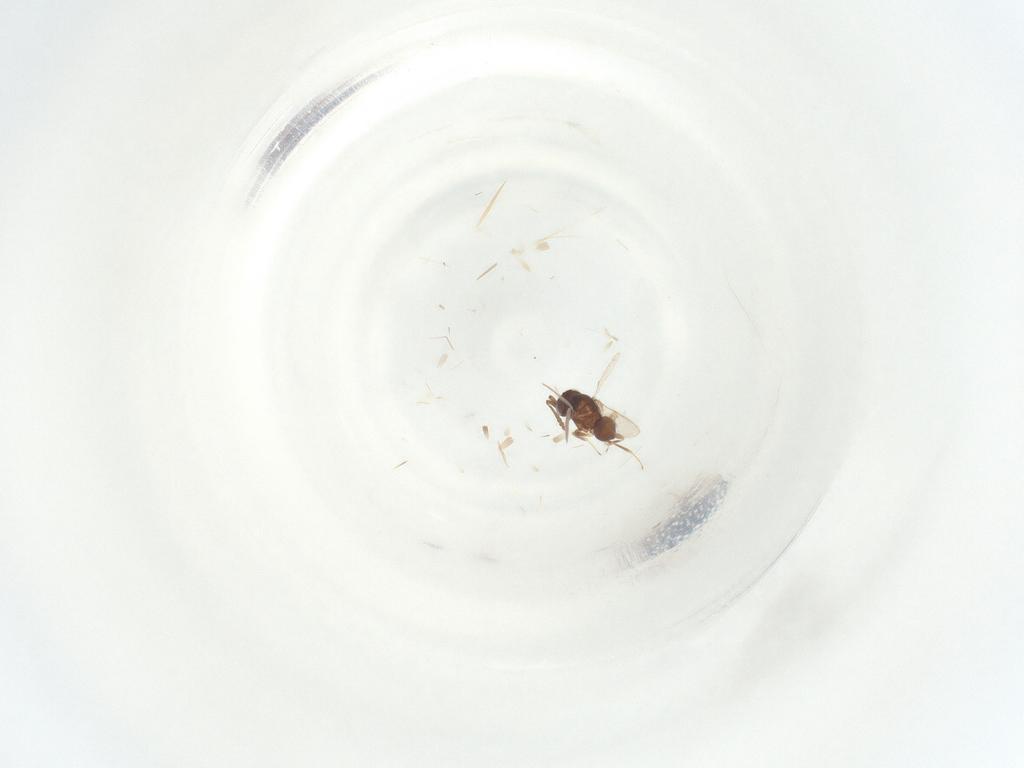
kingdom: Animalia
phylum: Arthropoda
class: Insecta
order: Hymenoptera
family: Scelionidae
